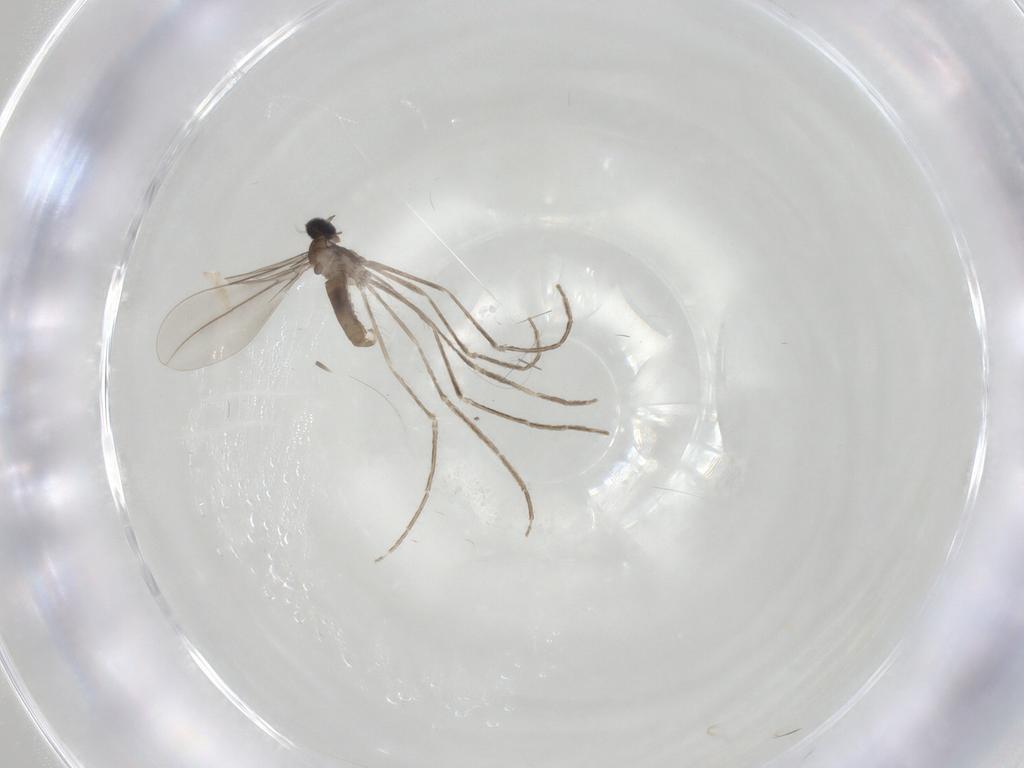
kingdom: Animalia
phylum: Arthropoda
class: Insecta
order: Diptera
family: Cecidomyiidae
